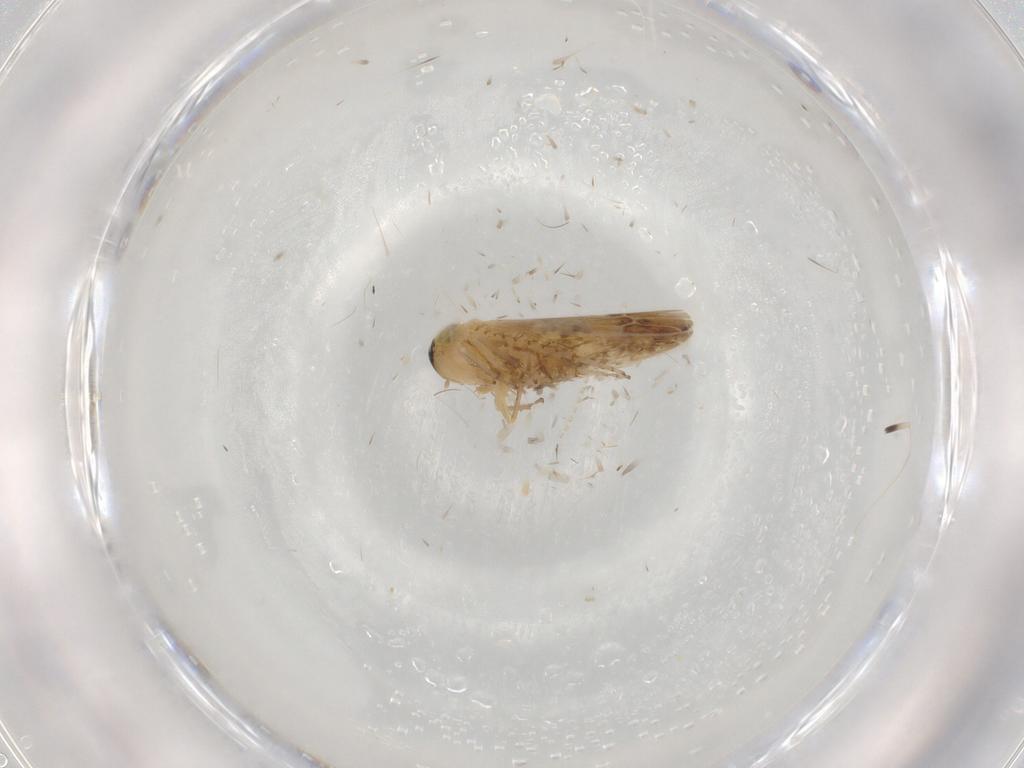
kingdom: Animalia
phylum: Arthropoda
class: Insecta
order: Hemiptera
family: Cicadellidae
